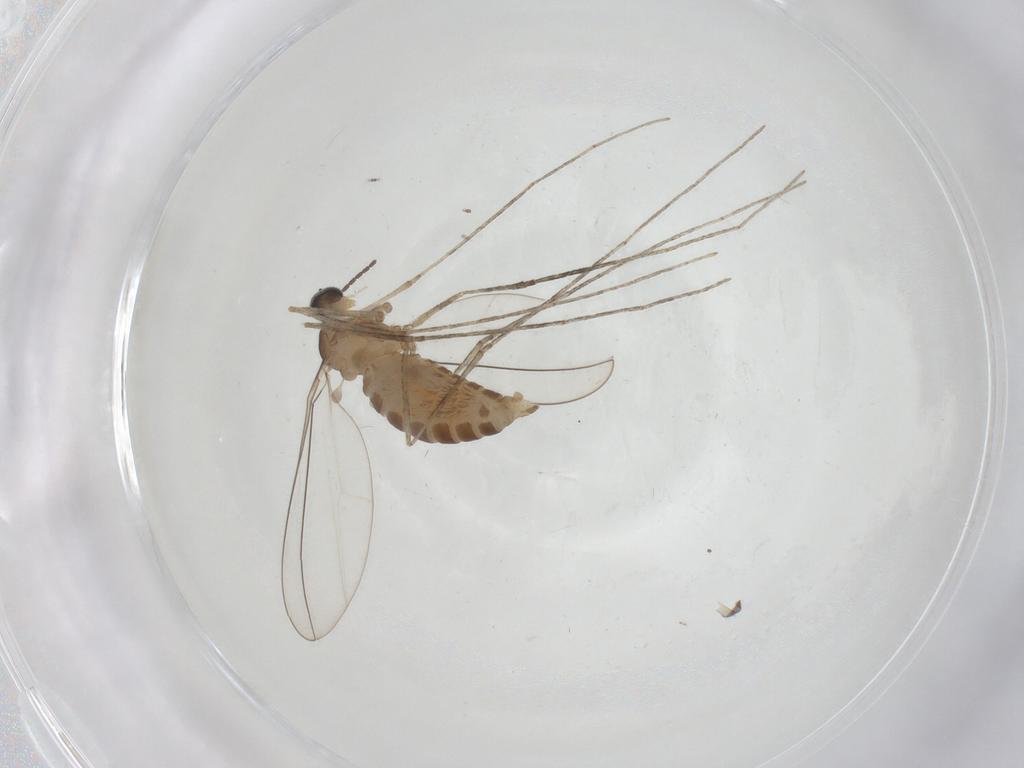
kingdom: Animalia
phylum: Arthropoda
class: Insecta
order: Diptera
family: Cecidomyiidae
